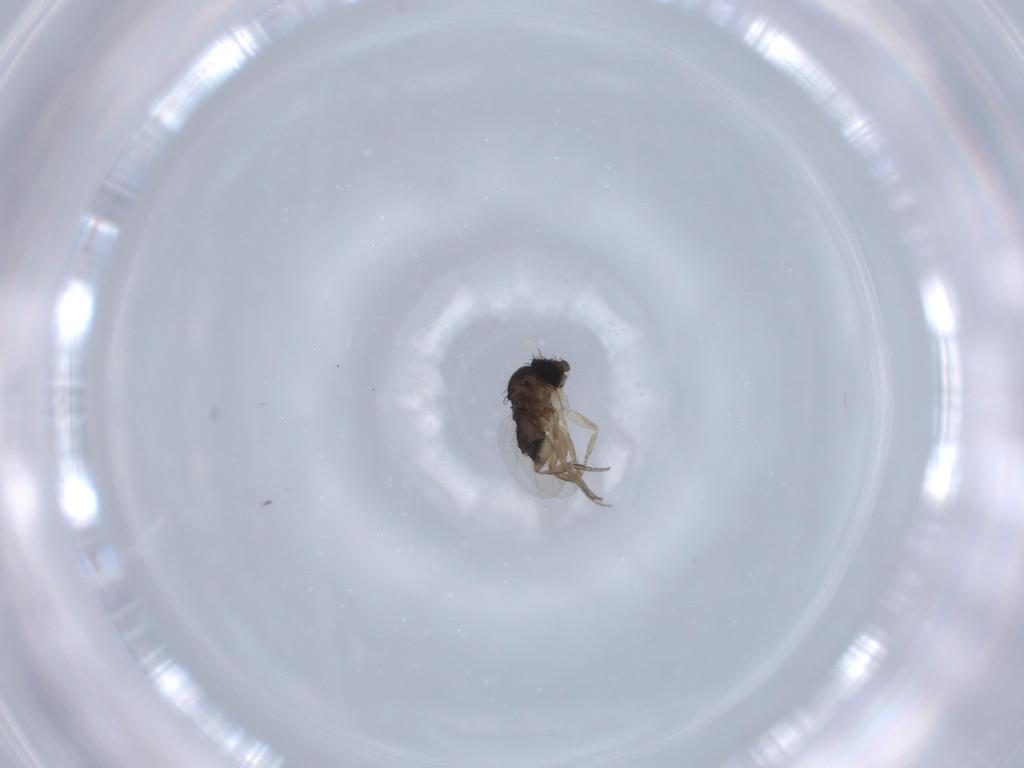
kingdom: Animalia
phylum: Arthropoda
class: Insecta
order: Diptera
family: Phoridae
